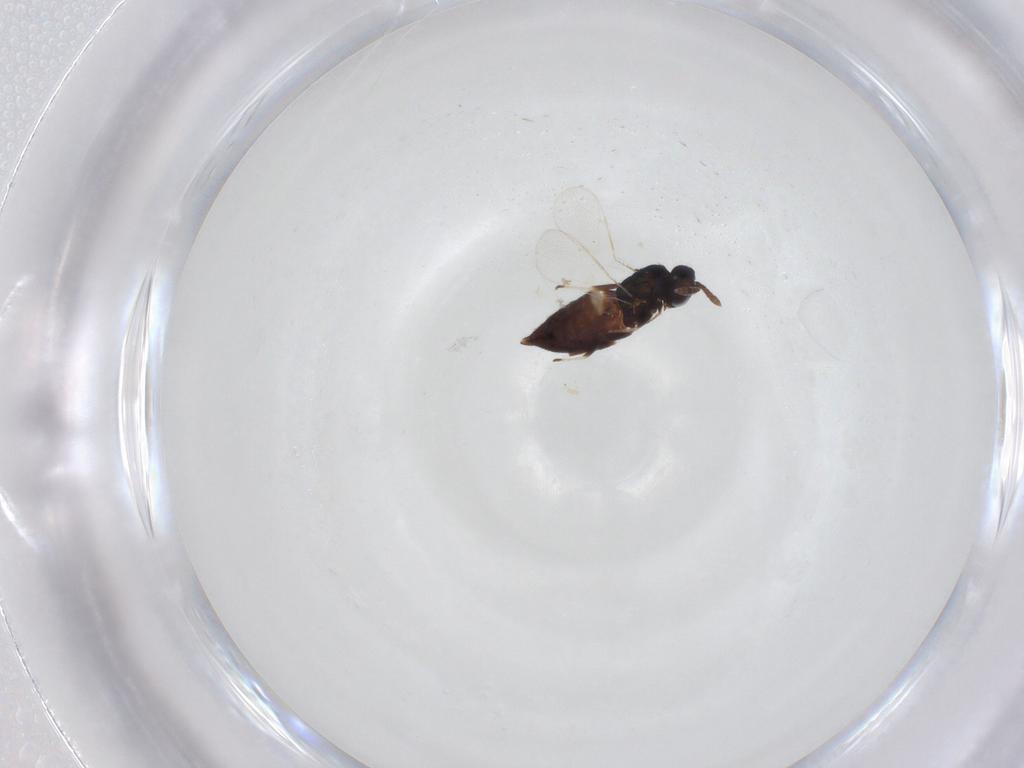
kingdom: Animalia
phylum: Arthropoda
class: Insecta
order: Hymenoptera
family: Trichogrammatidae
